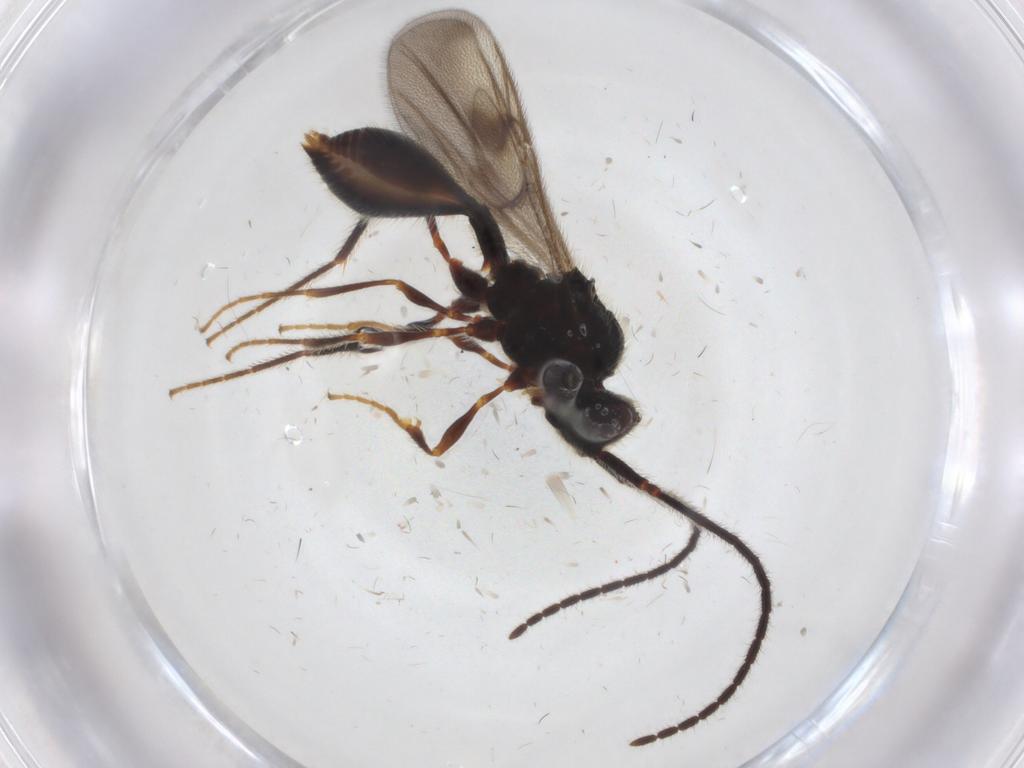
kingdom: Animalia
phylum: Arthropoda
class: Insecta
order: Hymenoptera
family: Diapriidae
